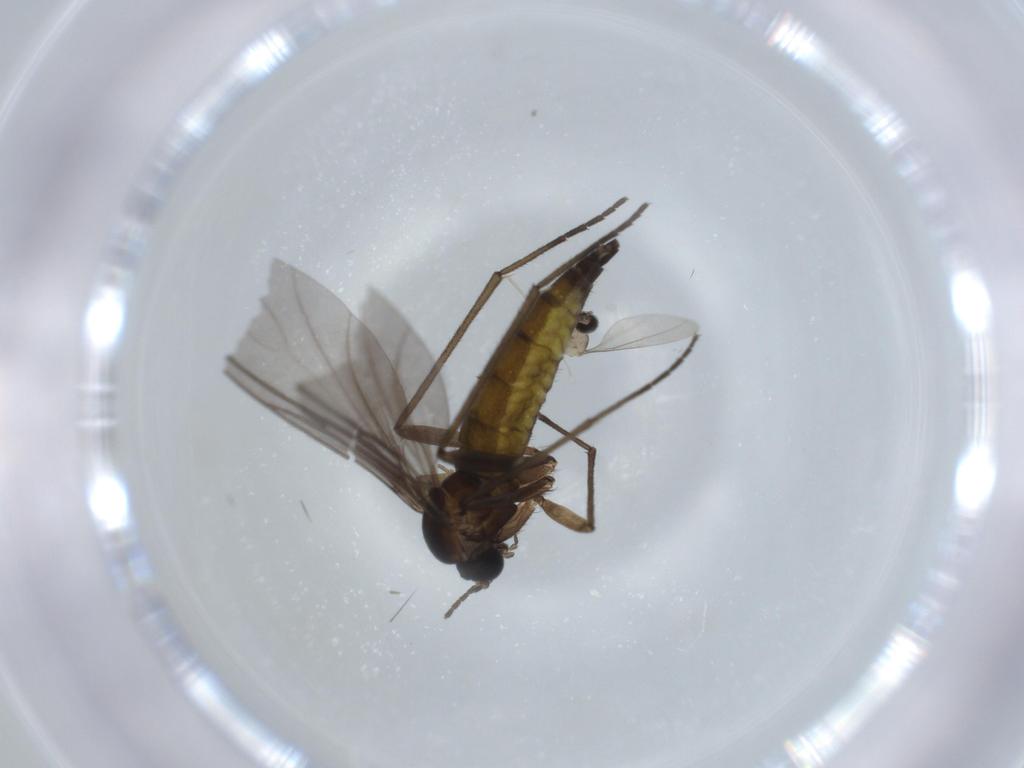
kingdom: Animalia
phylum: Arthropoda
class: Insecta
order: Diptera
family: Sciaridae
